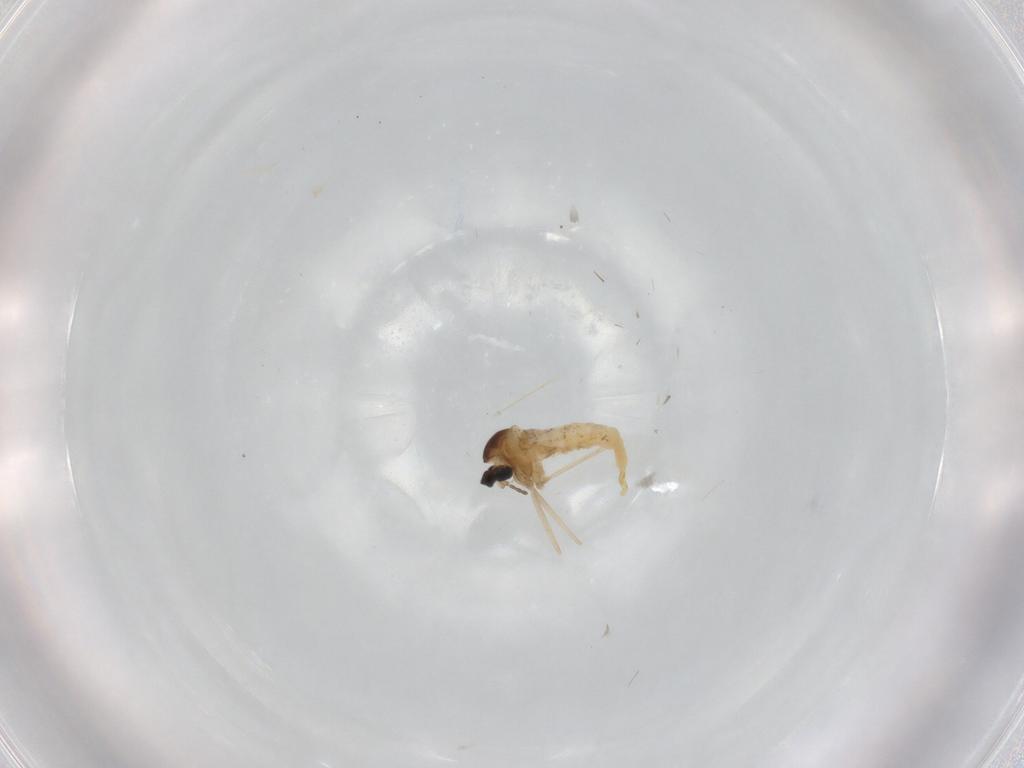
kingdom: Animalia
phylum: Arthropoda
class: Insecta
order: Diptera
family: Cecidomyiidae
